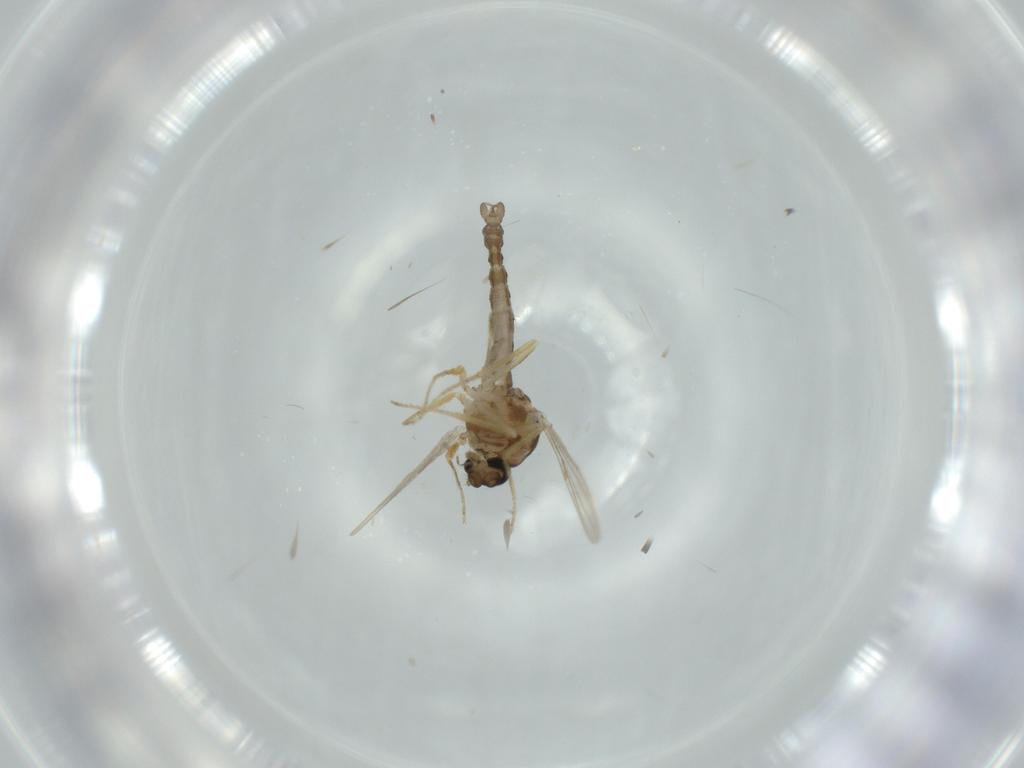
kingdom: Animalia
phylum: Arthropoda
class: Insecta
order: Diptera
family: Ceratopogonidae
